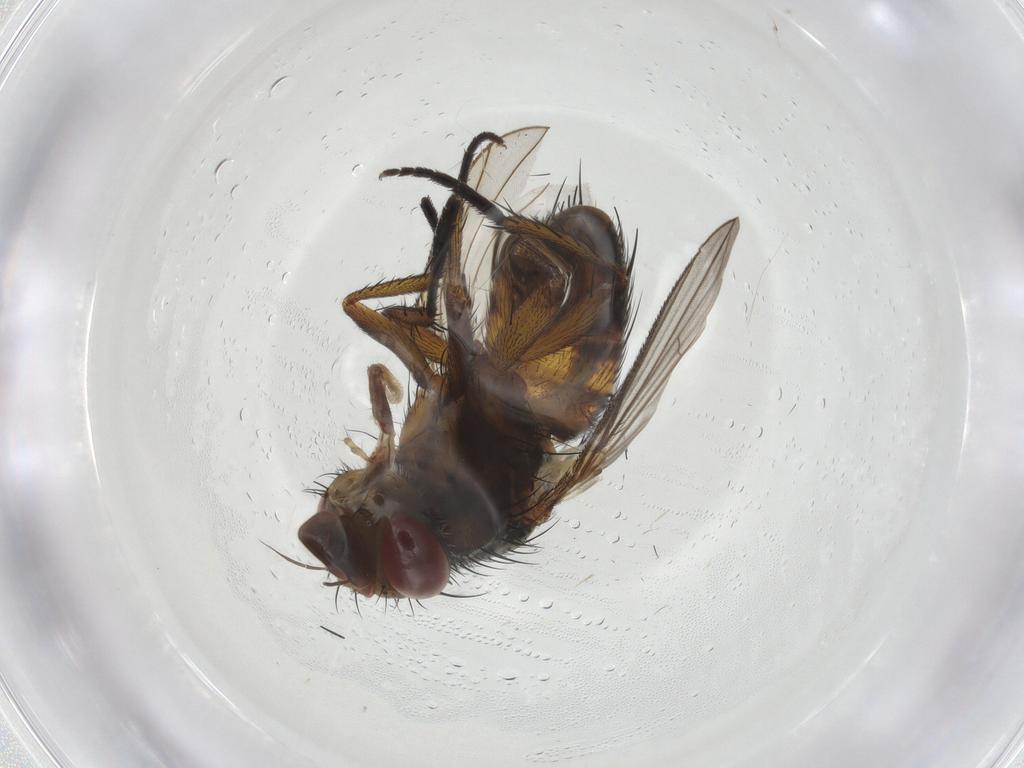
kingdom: Animalia
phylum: Arthropoda
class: Insecta
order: Diptera
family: Tachinidae
